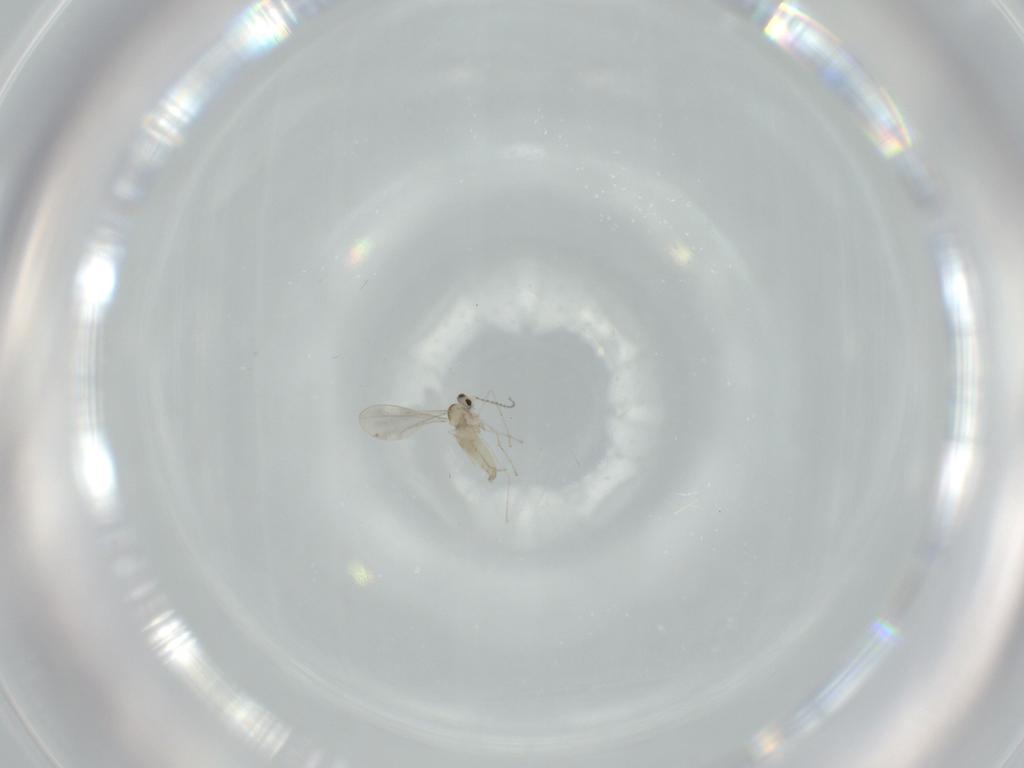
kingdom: Animalia
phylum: Arthropoda
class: Insecta
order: Diptera
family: Cecidomyiidae
